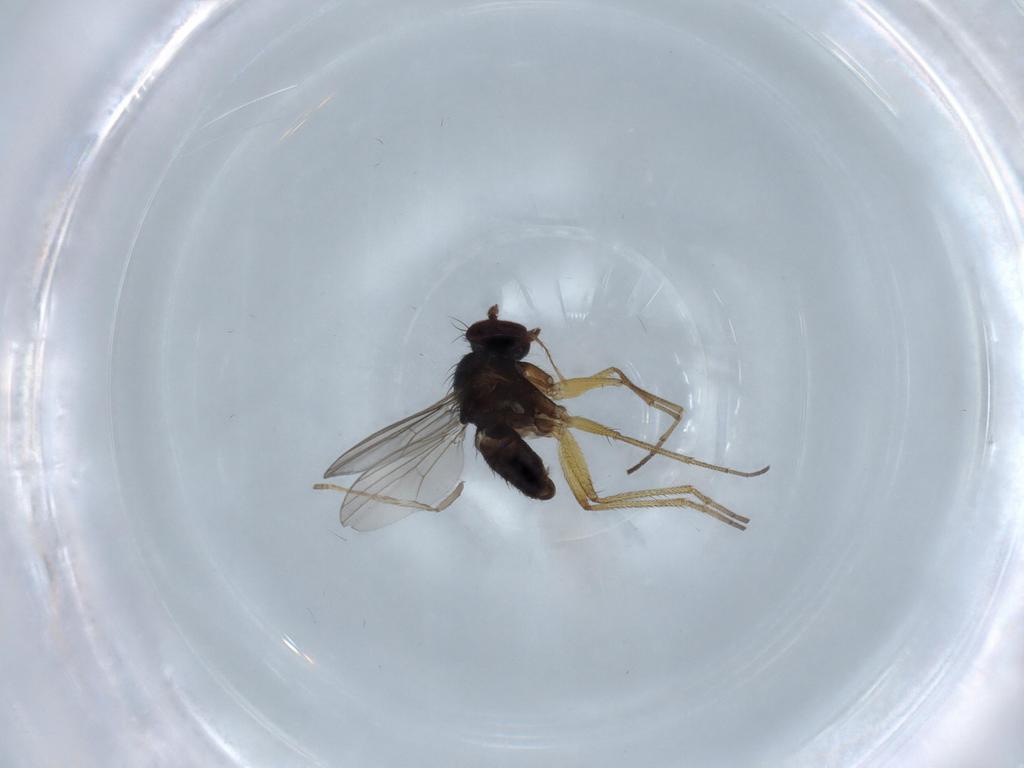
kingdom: Animalia
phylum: Arthropoda
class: Insecta
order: Diptera
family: Dolichopodidae
